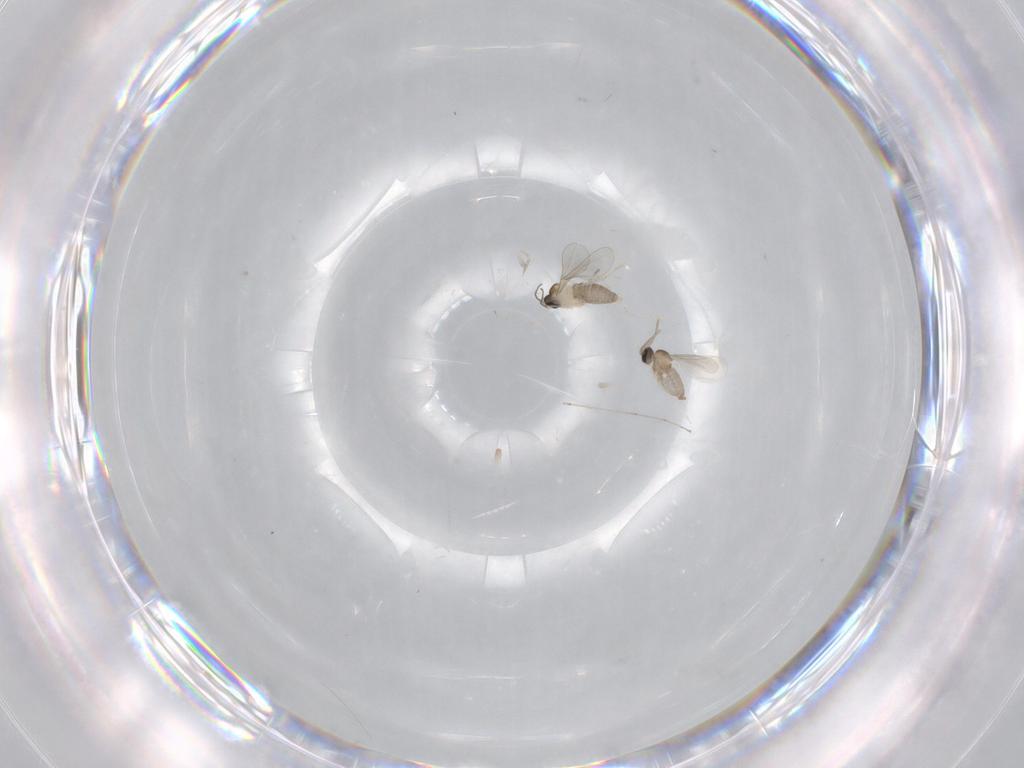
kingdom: Animalia
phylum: Arthropoda
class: Insecta
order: Diptera
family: Cecidomyiidae
